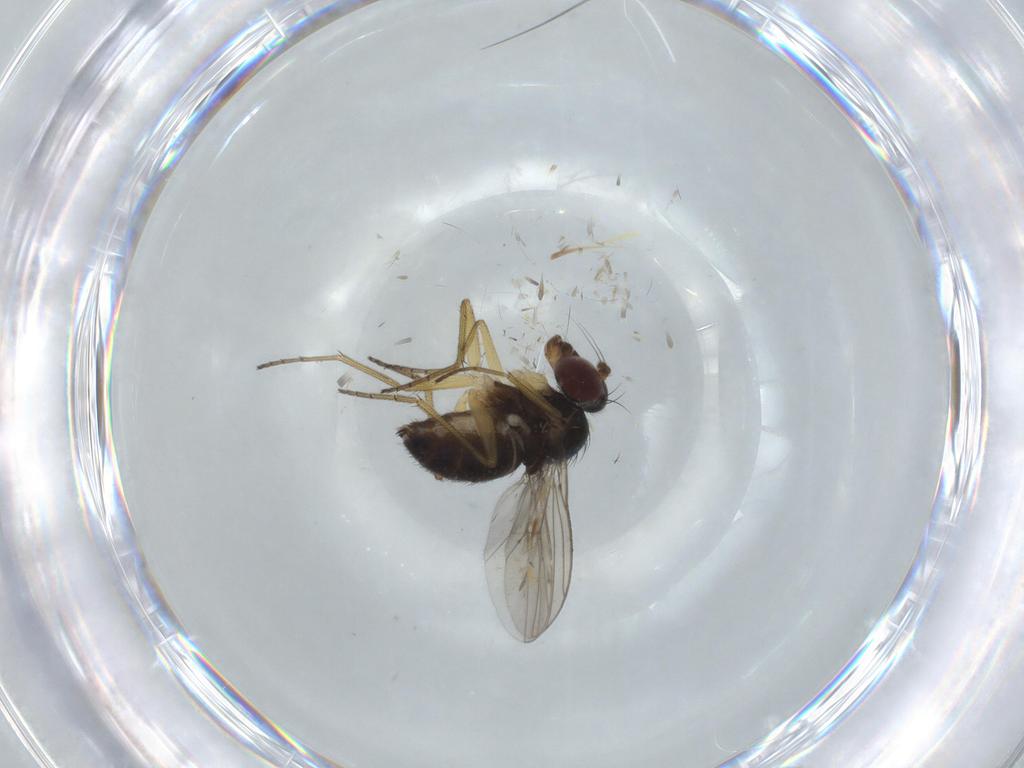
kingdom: Animalia
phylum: Arthropoda
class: Insecta
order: Diptera
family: Dolichopodidae
